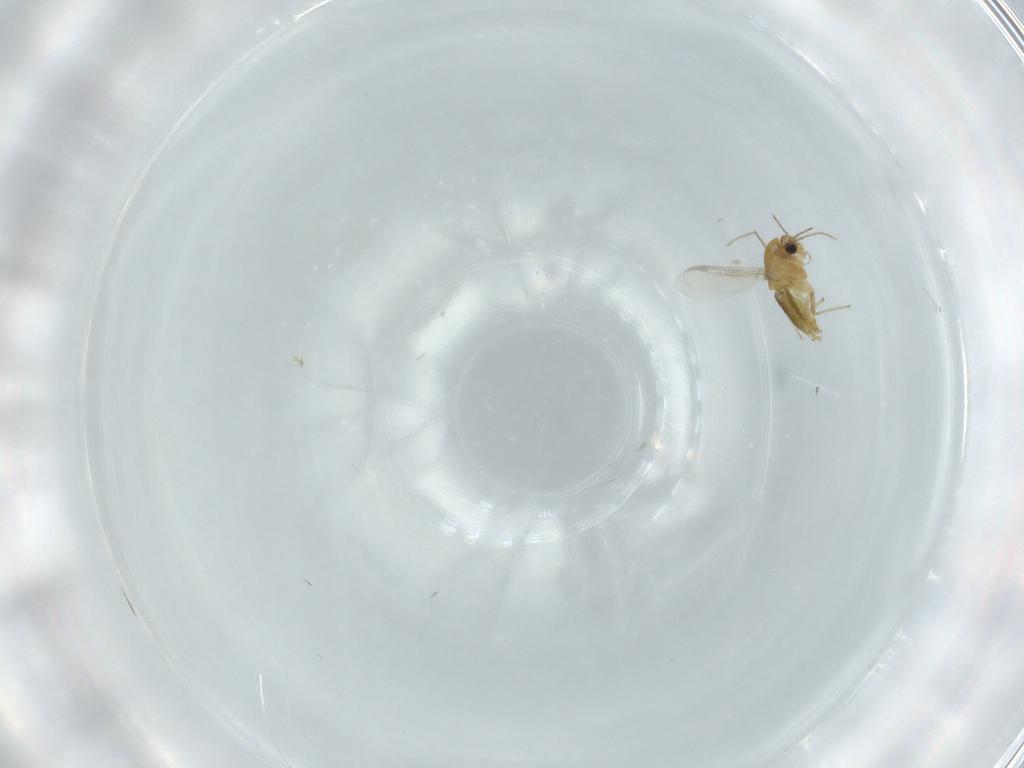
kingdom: Animalia
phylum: Arthropoda
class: Insecta
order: Diptera
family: Chironomidae
